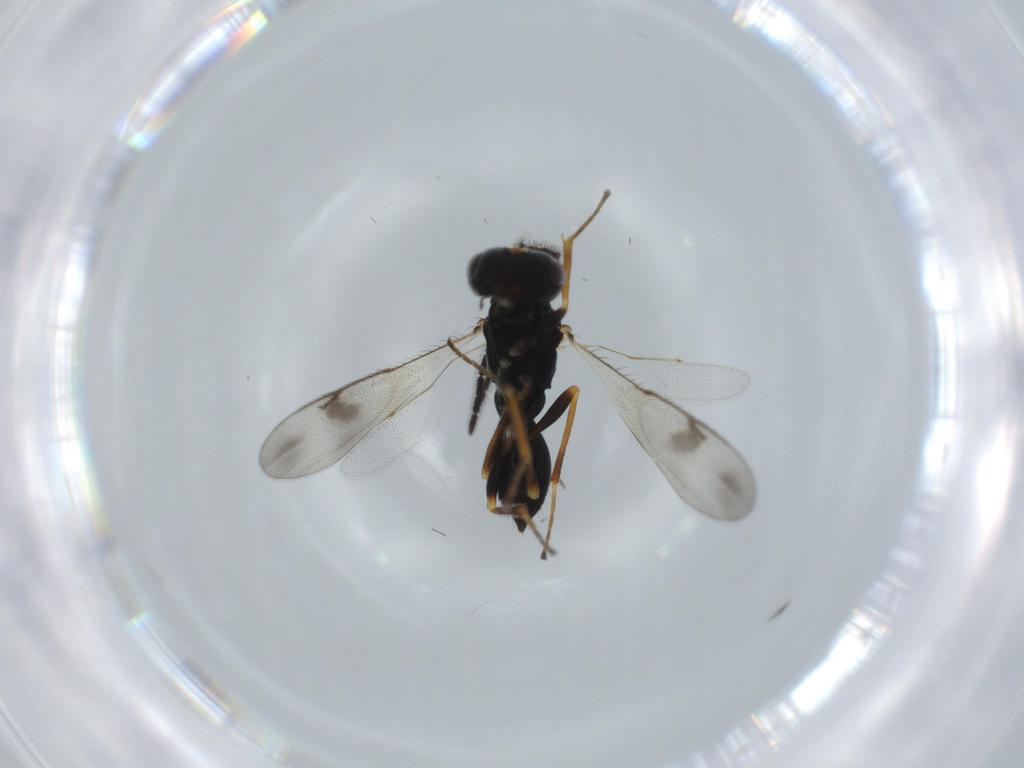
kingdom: Animalia
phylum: Arthropoda
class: Insecta
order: Hymenoptera
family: Diparidae
